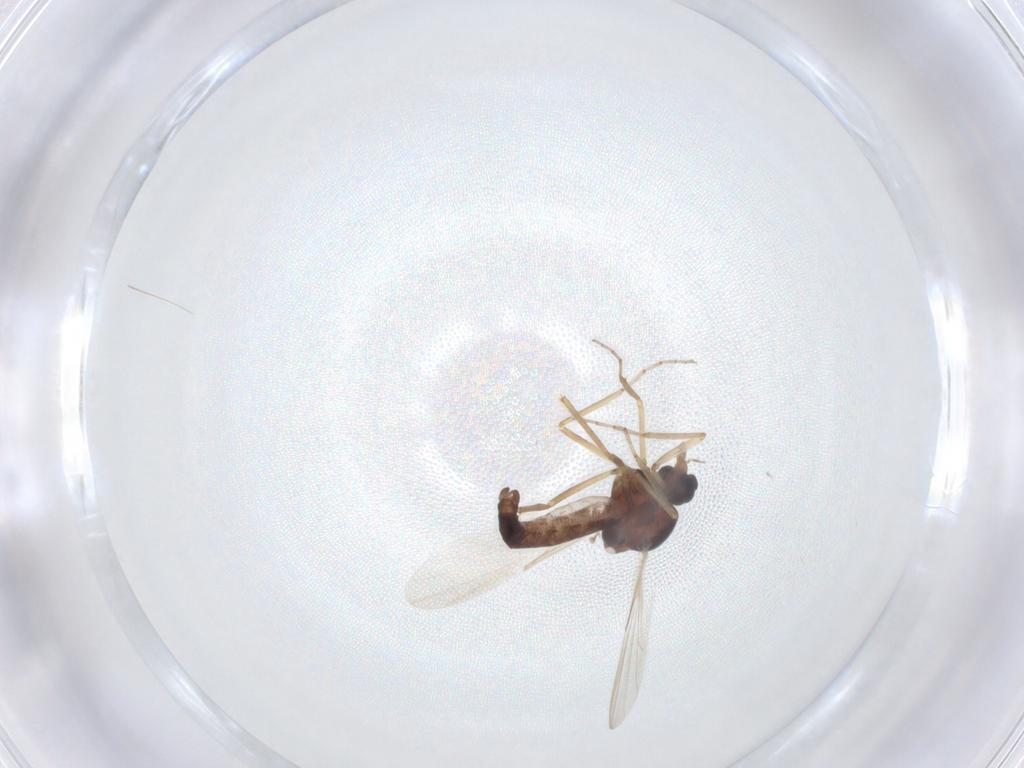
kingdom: Animalia
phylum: Arthropoda
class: Insecta
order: Diptera
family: Ceratopogonidae
